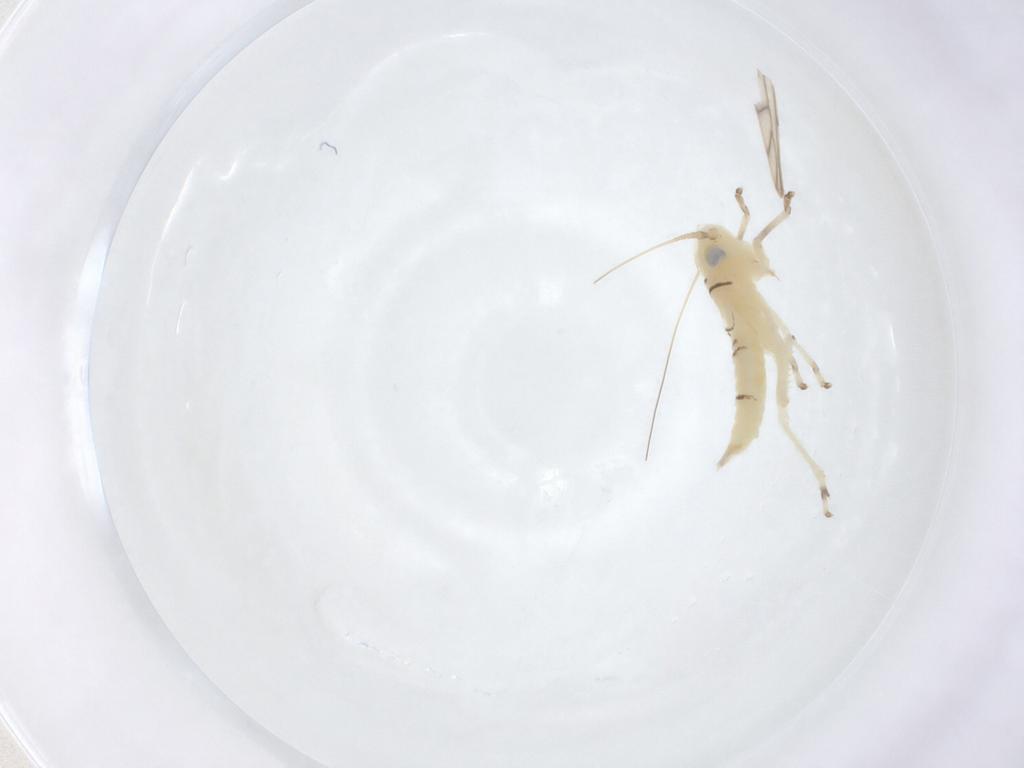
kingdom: Animalia
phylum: Arthropoda
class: Insecta
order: Hemiptera
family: Cicadellidae
